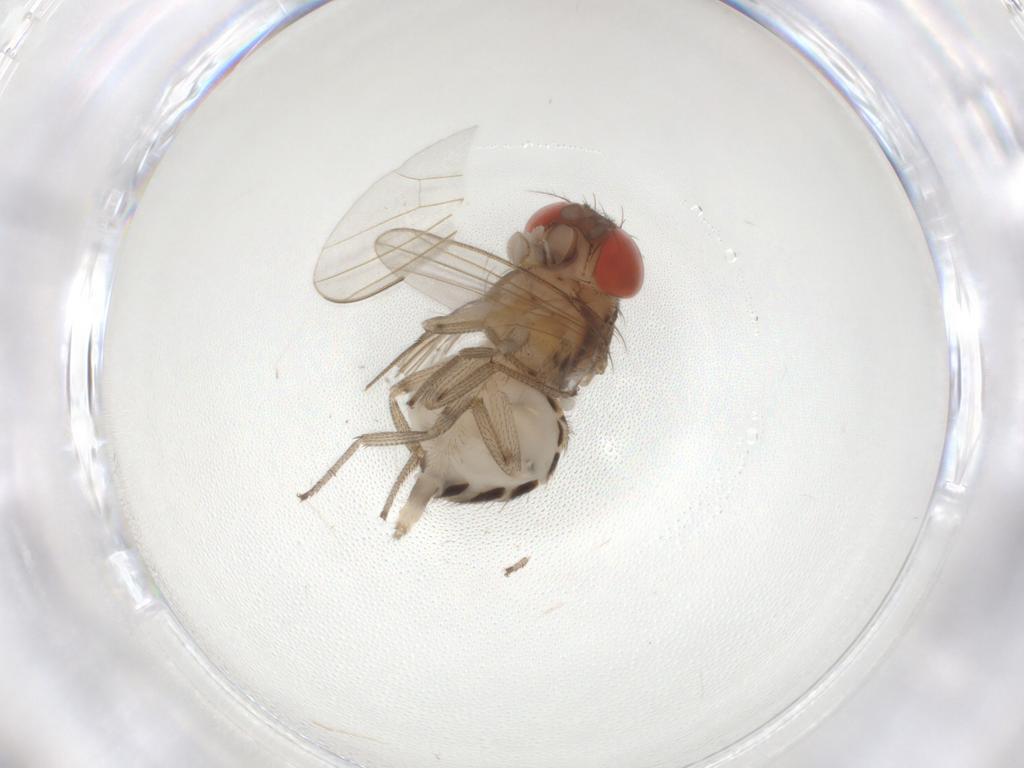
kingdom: Animalia
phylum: Arthropoda
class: Insecta
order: Diptera
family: Drosophilidae
